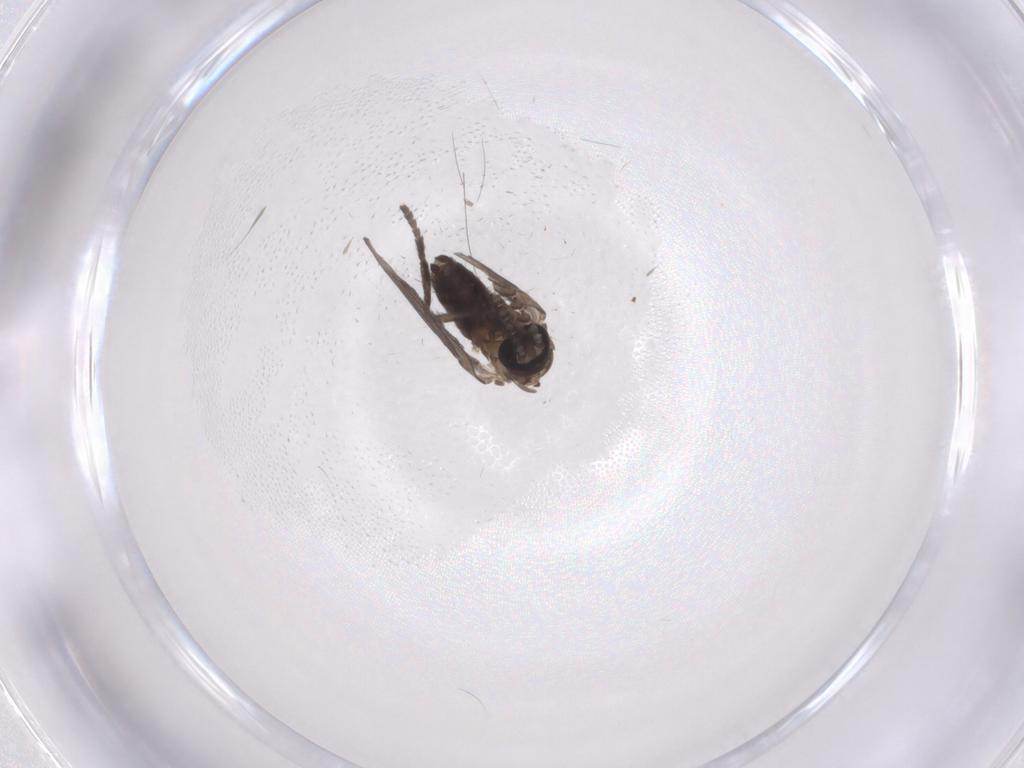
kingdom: Animalia
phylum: Arthropoda
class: Insecta
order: Diptera
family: Psychodidae
